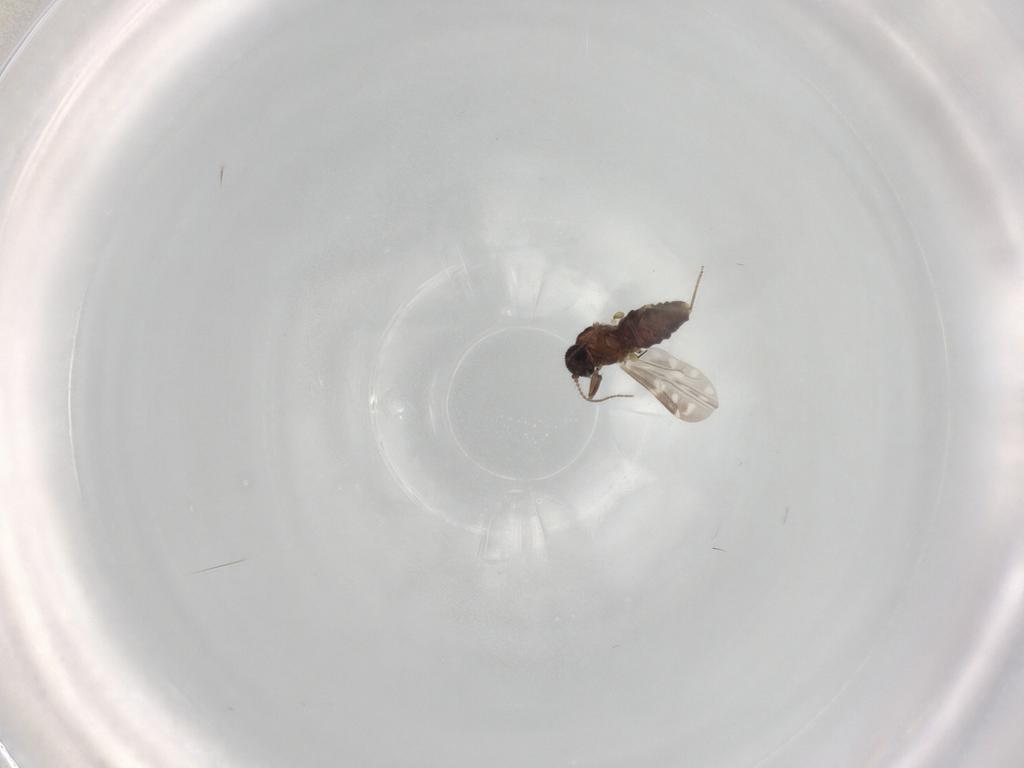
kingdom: Animalia
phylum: Arthropoda
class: Insecta
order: Diptera
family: Ceratopogonidae
